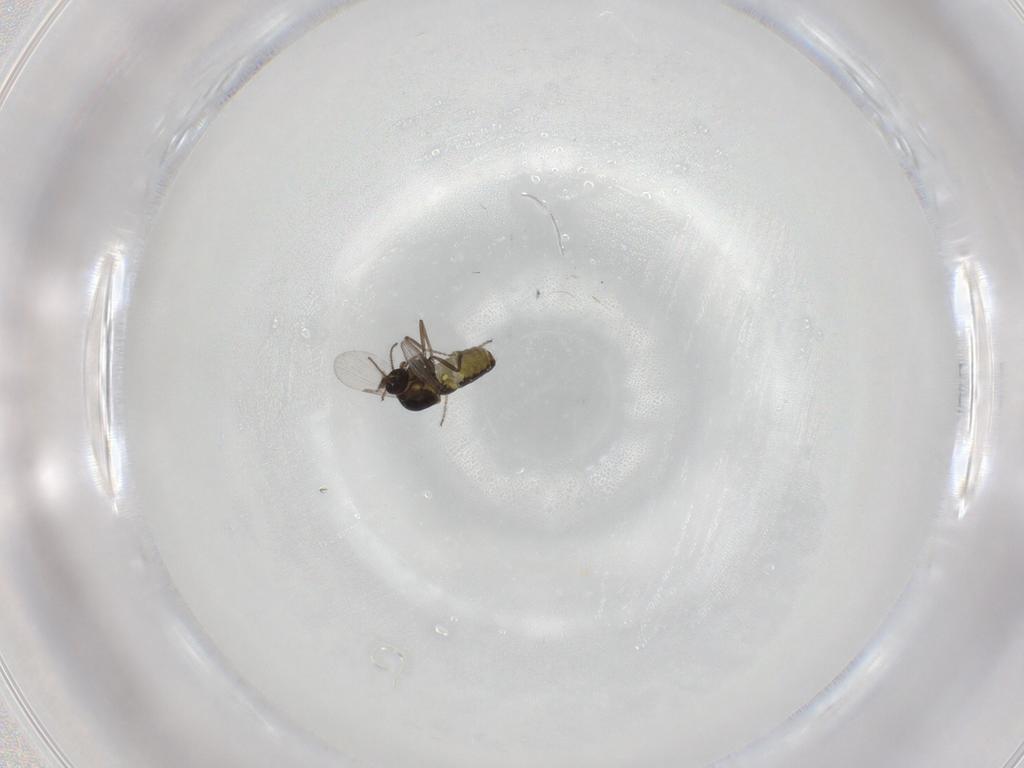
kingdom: Animalia
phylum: Arthropoda
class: Insecta
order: Diptera
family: Ceratopogonidae
